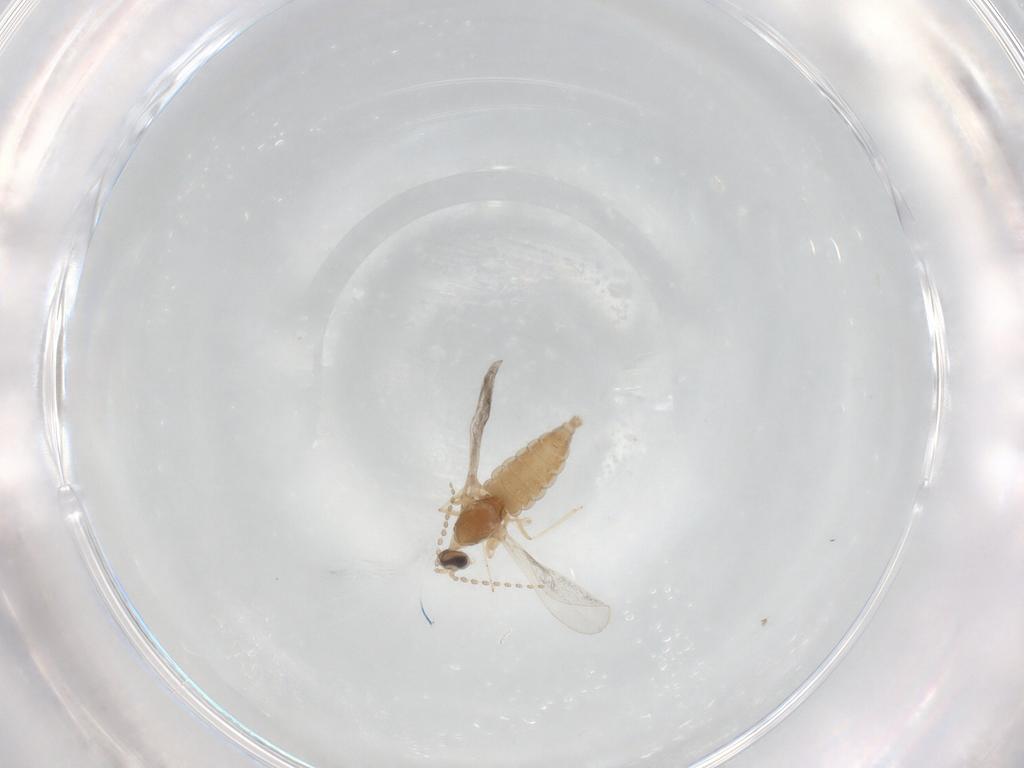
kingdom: Animalia
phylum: Arthropoda
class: Insecta
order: Diptera
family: Cecidomyiidae
